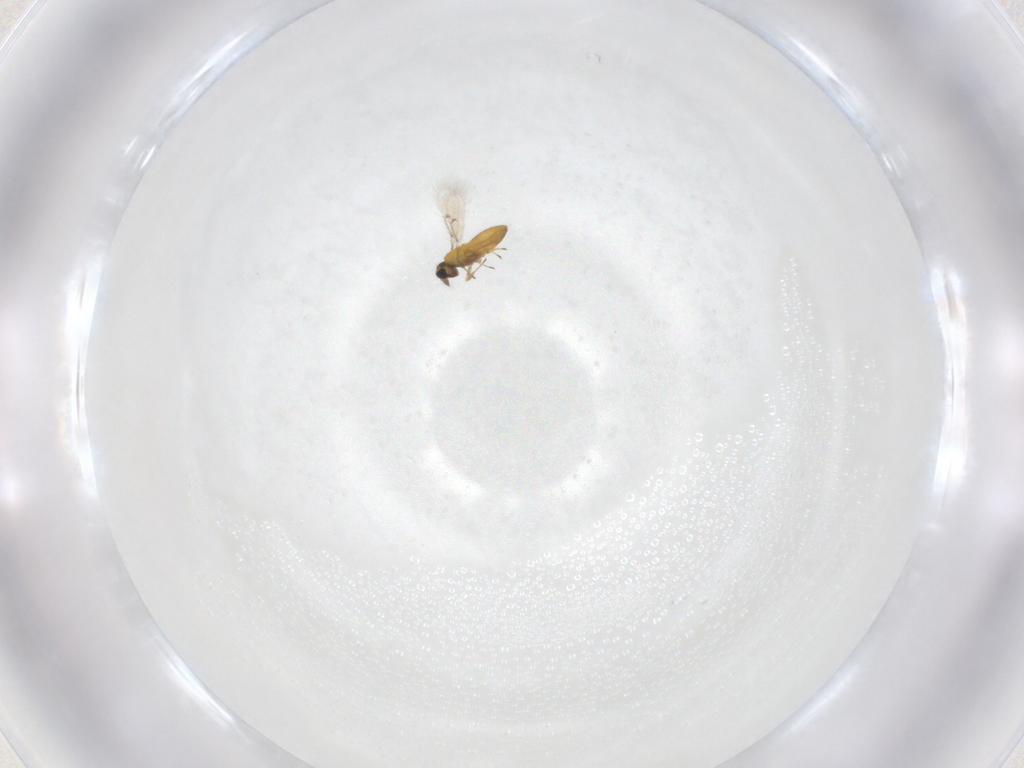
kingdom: Animalia
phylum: Arthropoda
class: Insecta
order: Hymenoptera
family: Trichogrammatidae
